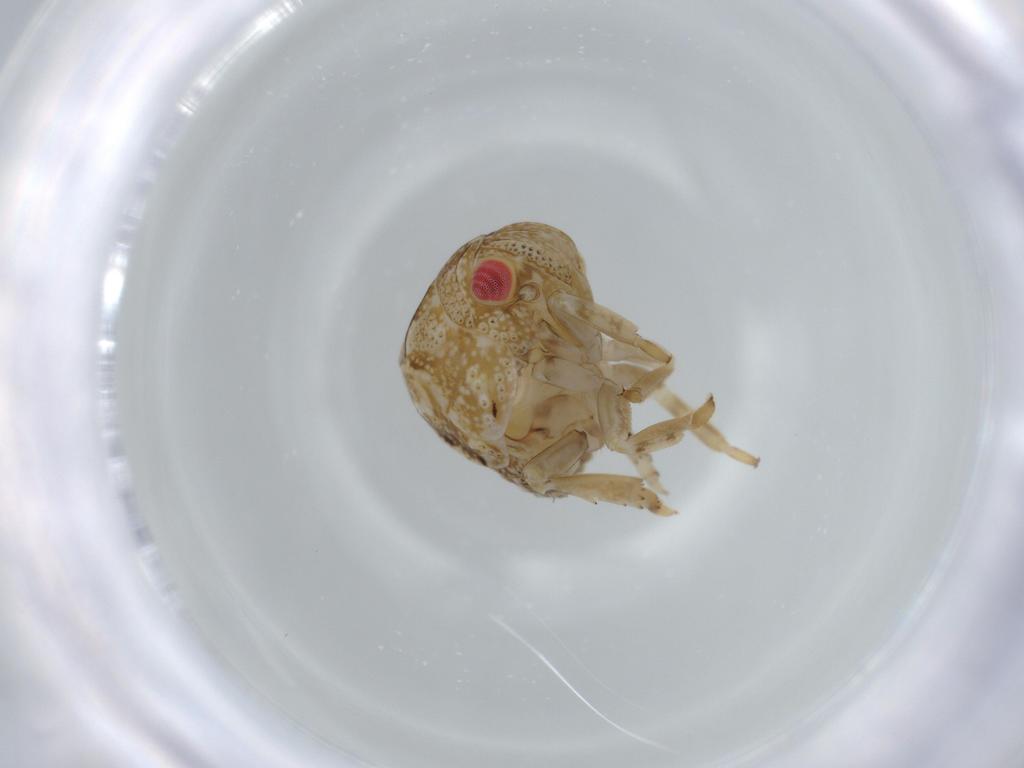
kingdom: Animalia
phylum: Arthropoda
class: Insecta
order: Hemiptera
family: Acanaloniidae
